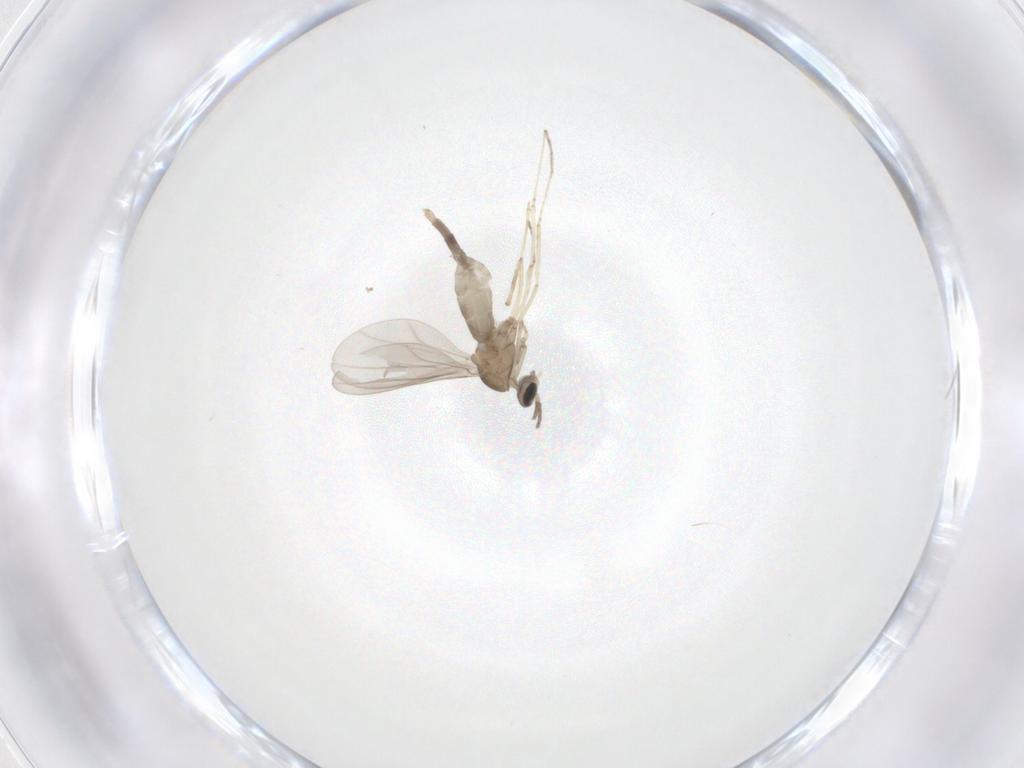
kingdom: Animalia
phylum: Arthropoda
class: Insecta
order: Diptera
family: Cecidomyiidae
